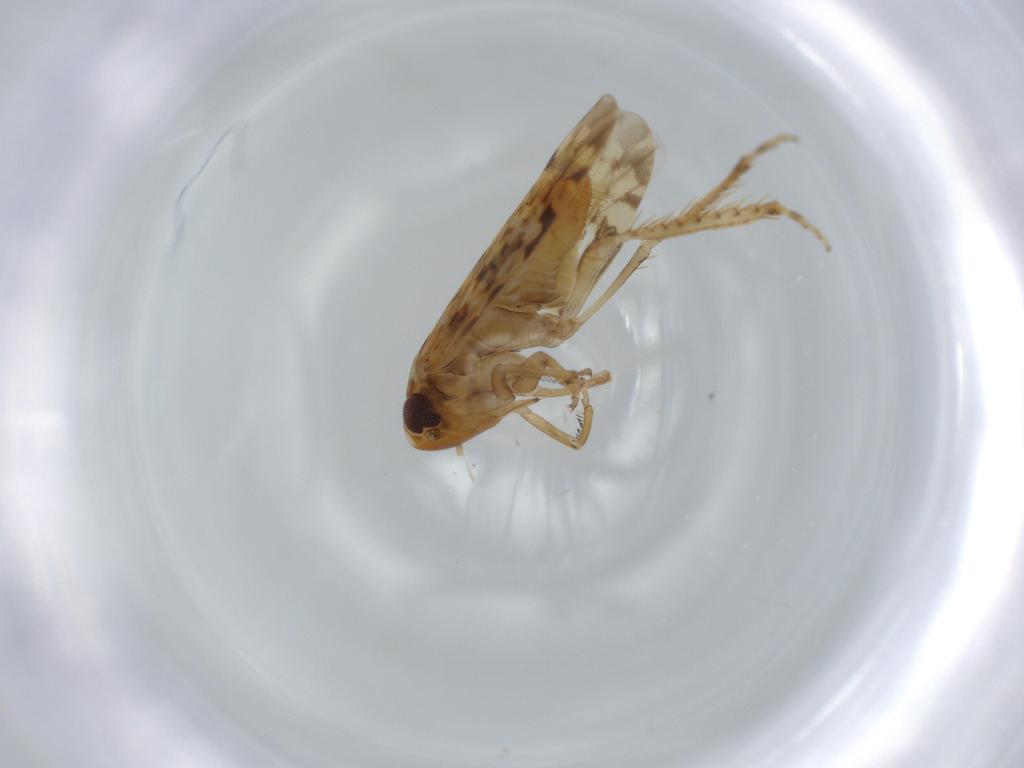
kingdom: Animalia
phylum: Arthropoda
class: Insecta
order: Hemiptera
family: Cicadellidae
